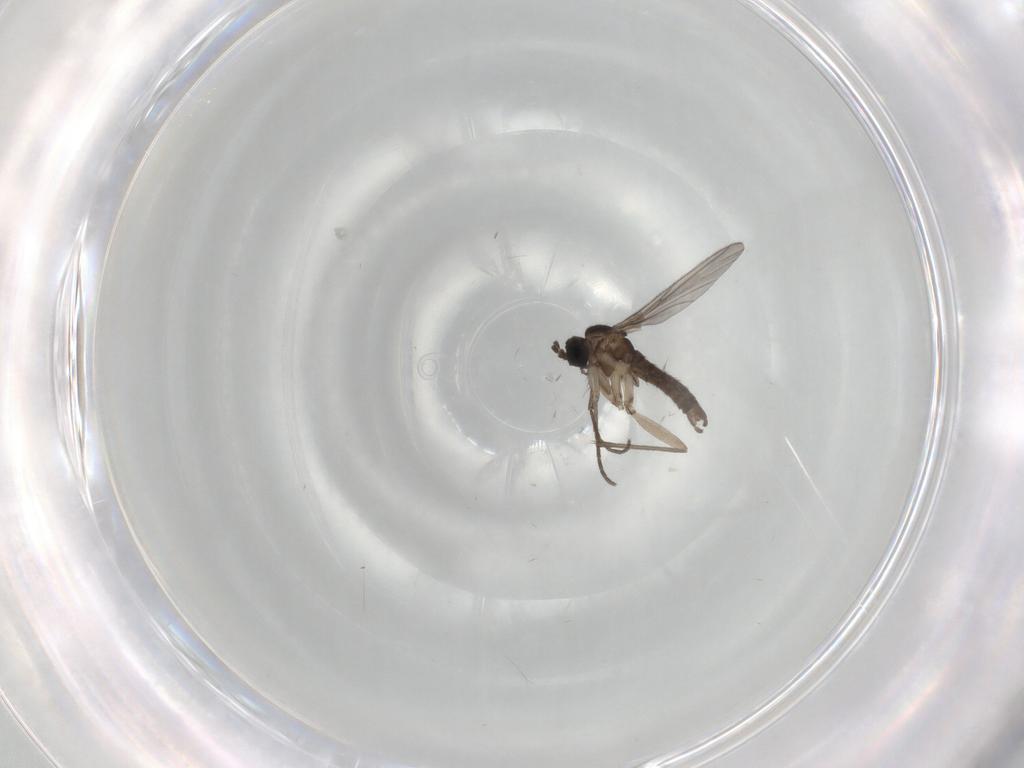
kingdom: Animalia
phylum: Arthropoda
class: Insecta
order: Diptera
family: Sciaridae
